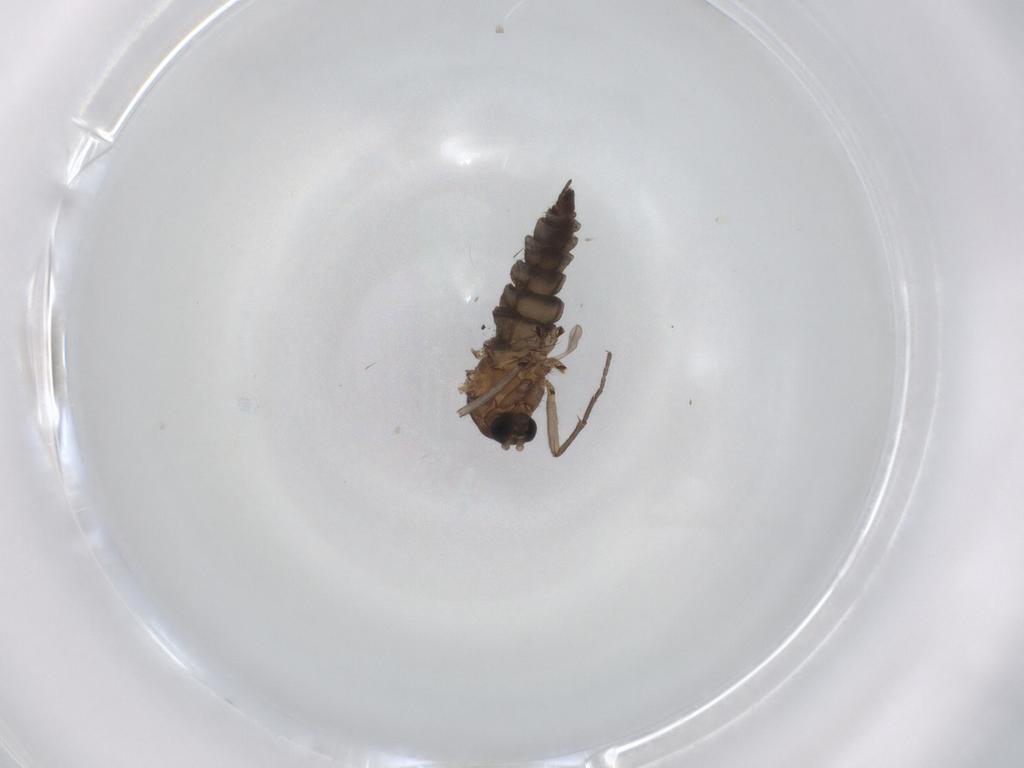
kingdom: Animalia
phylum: Arthropoda
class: Insecta
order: Diptera
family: Sciaridae
